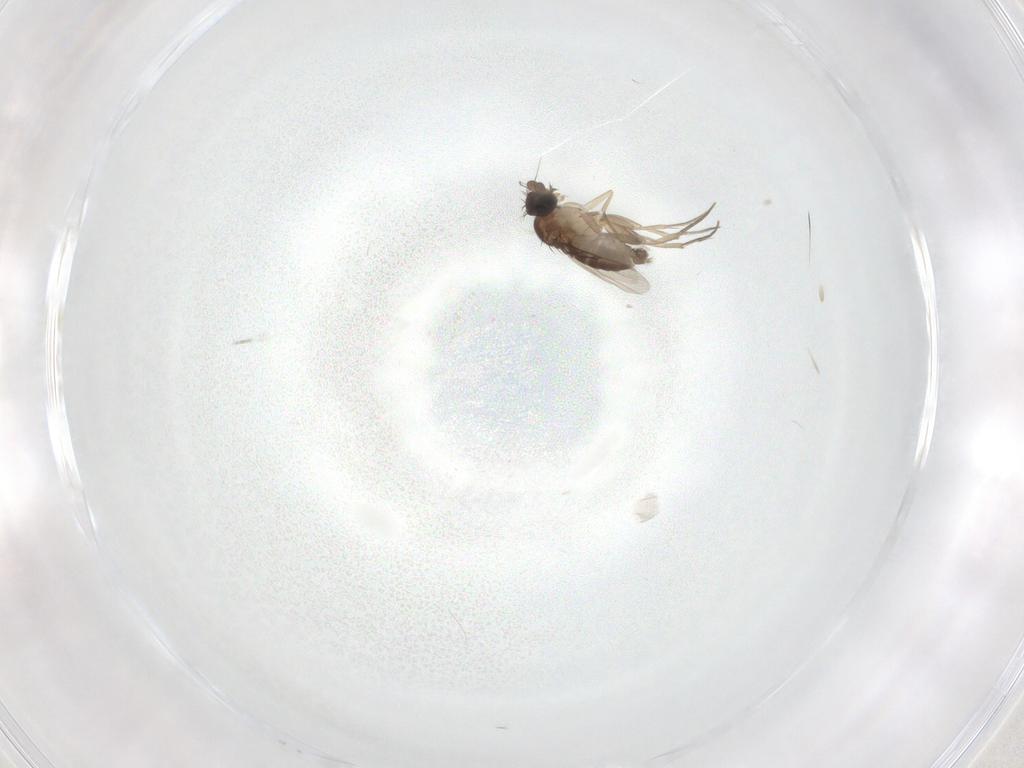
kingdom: Animalia
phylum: Arthropoda
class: Insecta
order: Diptera
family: Phoridae
